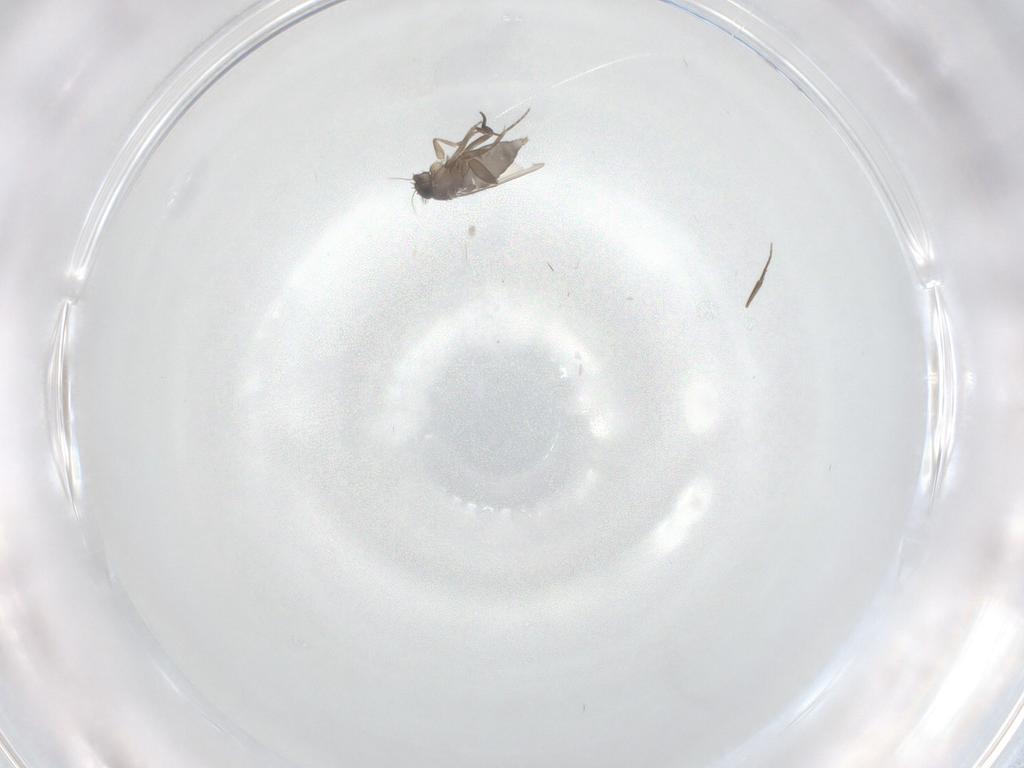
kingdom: Animalia
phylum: Arthropoda
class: Insecta
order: Diptera
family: Phoridae
